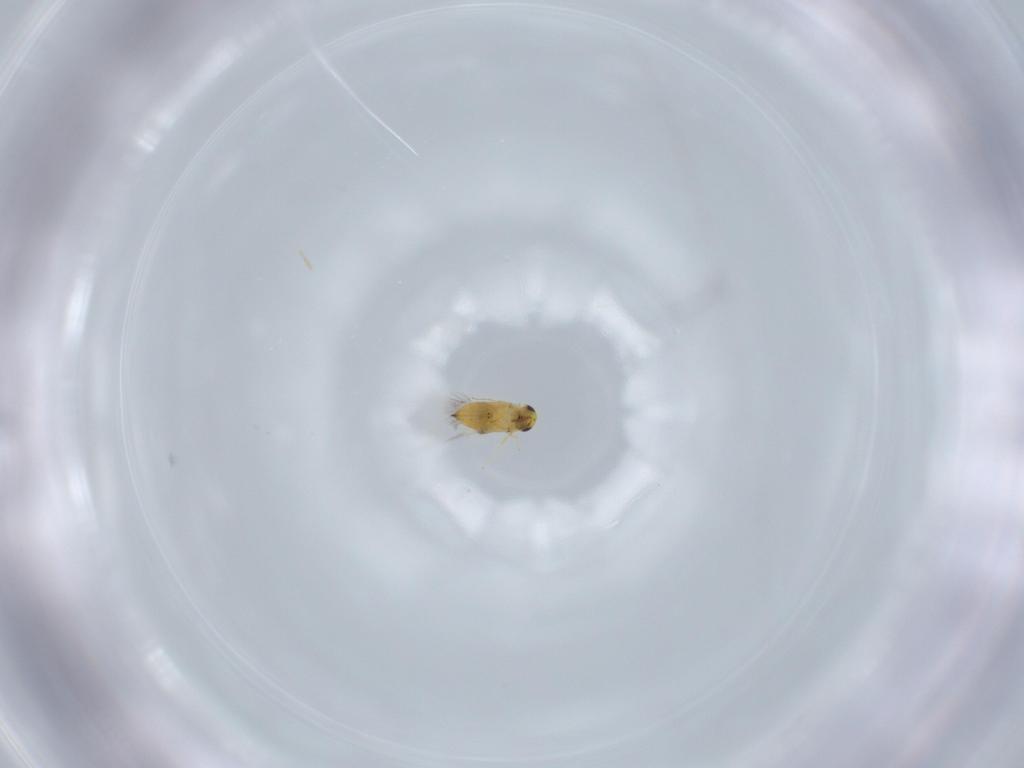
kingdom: Animalia
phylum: Arthropoda
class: Insecta
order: Hymenoptera
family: Signiphoridae
